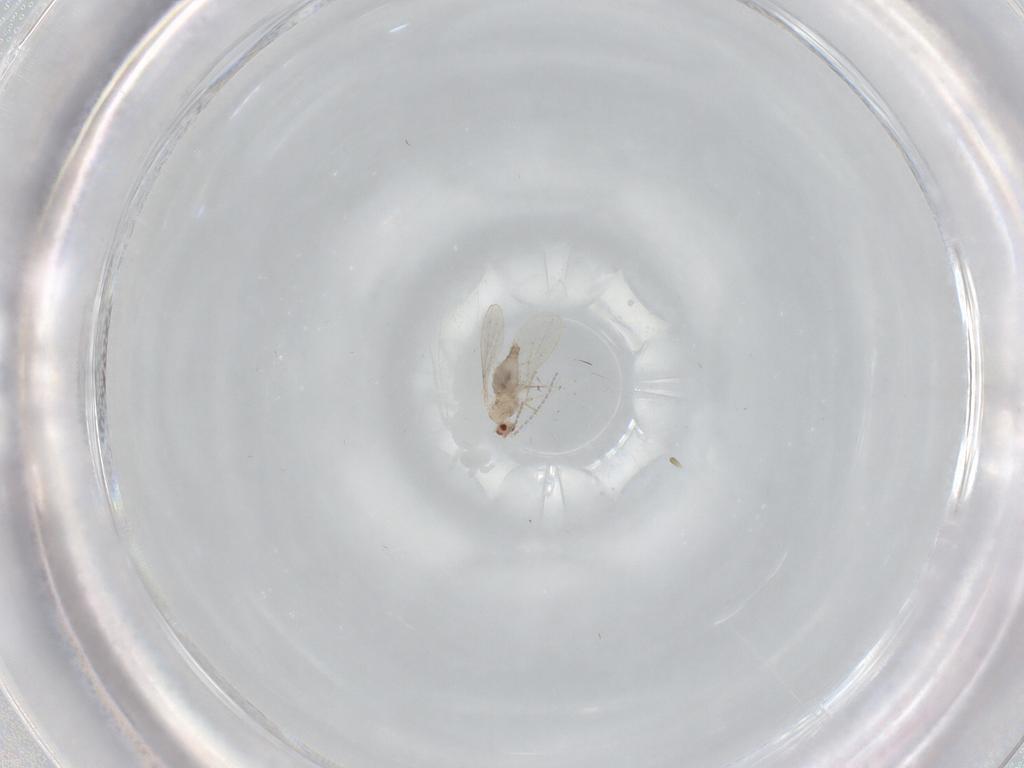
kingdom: Animalia
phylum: Arthropoda
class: Insecta
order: Diptera
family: Cecidomyiidae
